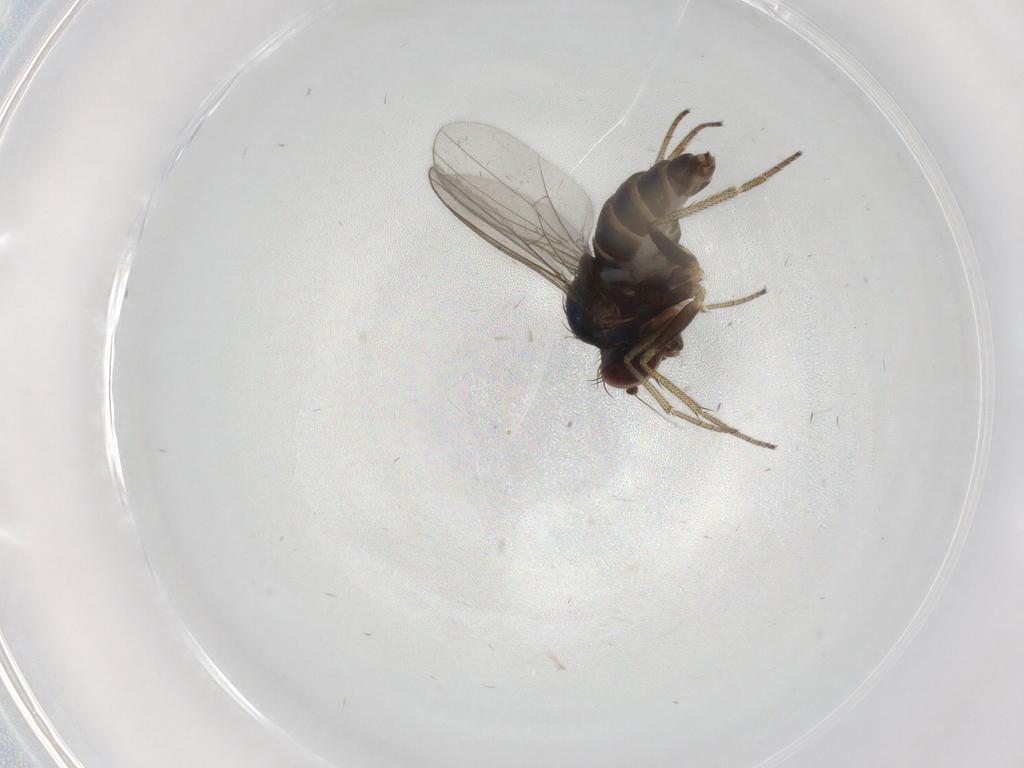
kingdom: Animalia
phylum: Arthropoda
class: Insecta
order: Diptera
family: Dolichopodidae
